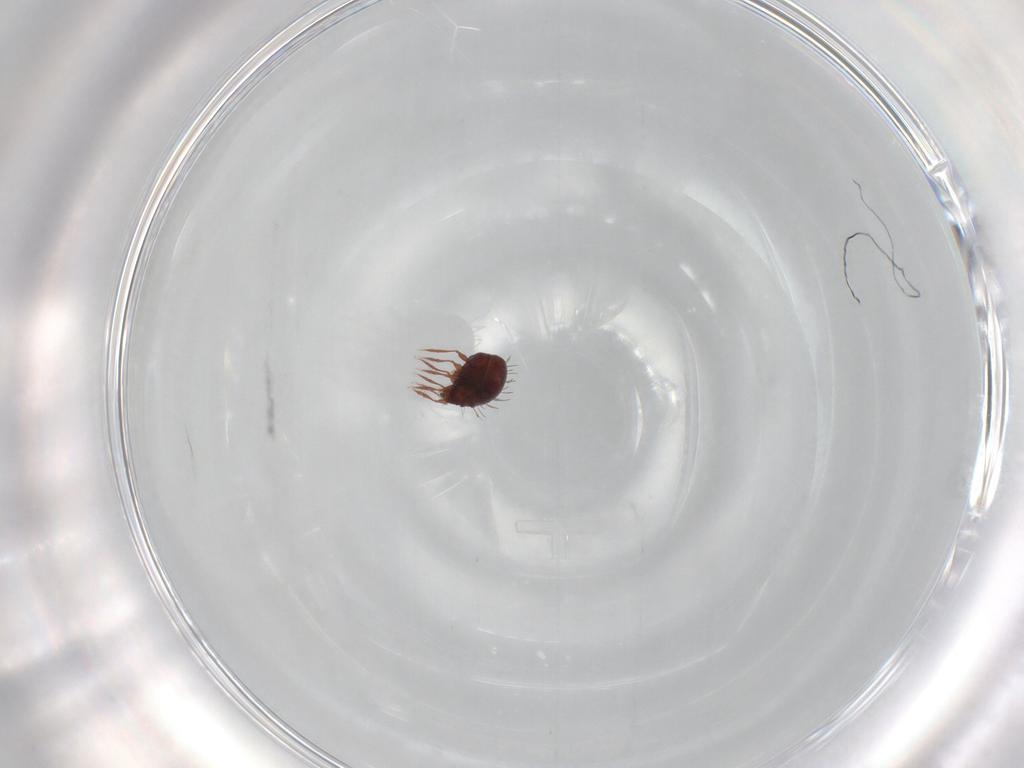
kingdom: Animalia
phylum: Arthropoda
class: Arachnida
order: Sarcoptiformes
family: Caloppiidae
